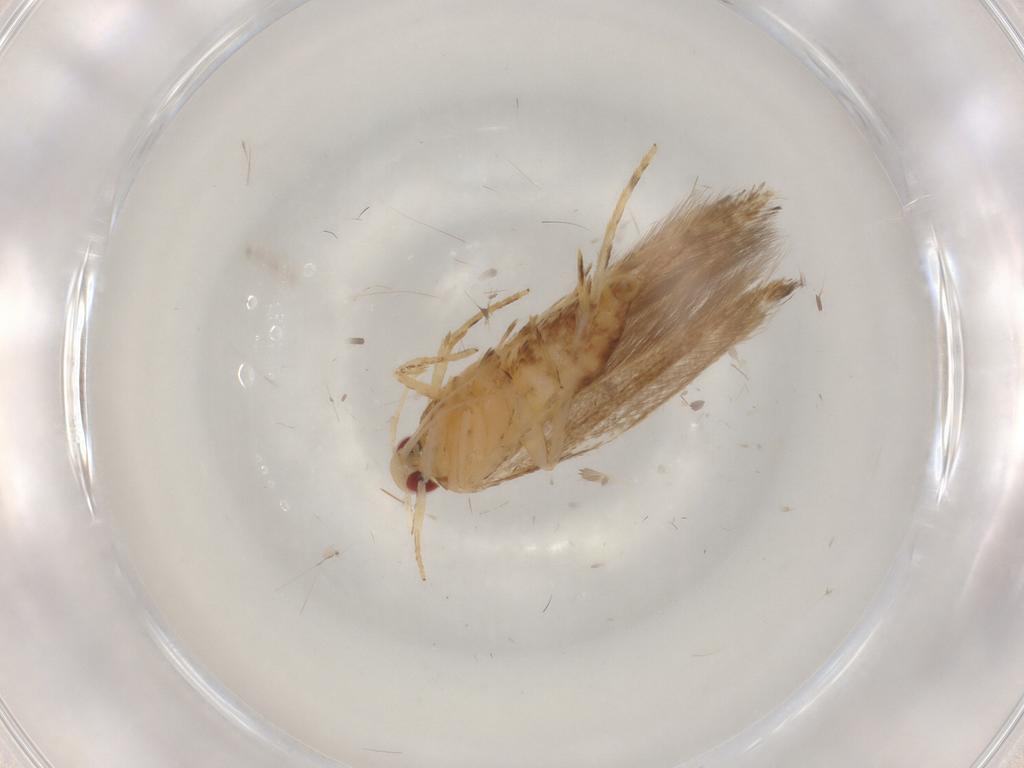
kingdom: Animalia
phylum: Arthropoda
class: Insecta
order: Lepidoptera
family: Cosmopterigidae
